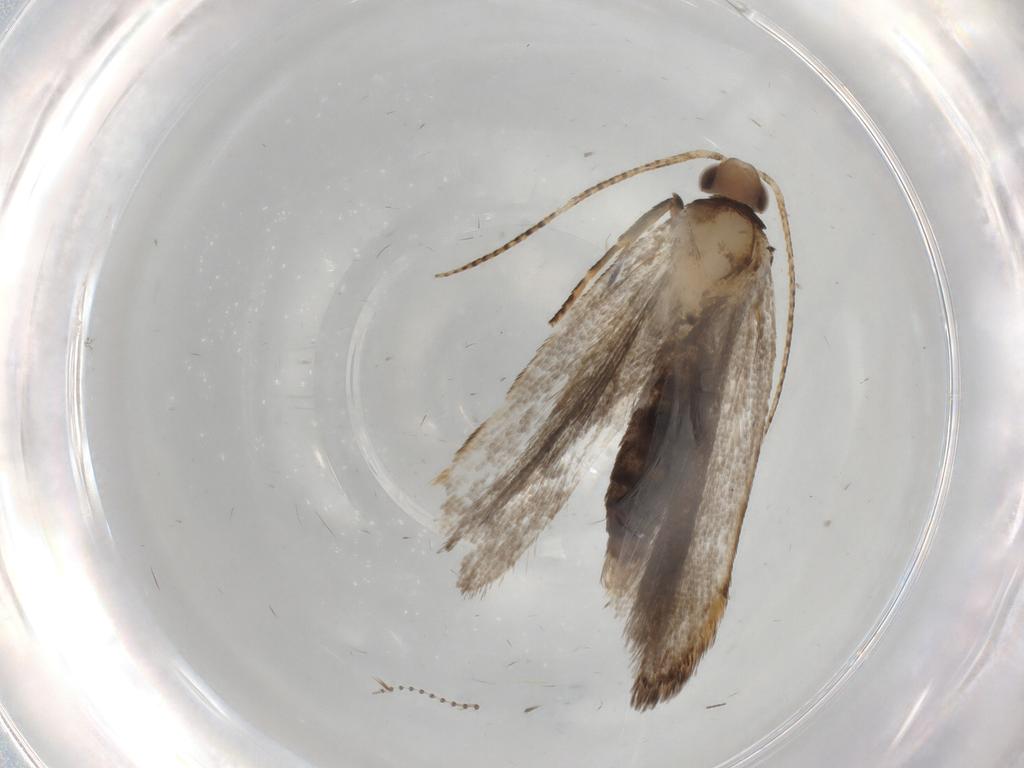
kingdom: Animalia
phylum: Arthropoda
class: Insecta
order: Lepidoptera
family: Gelechiidae
